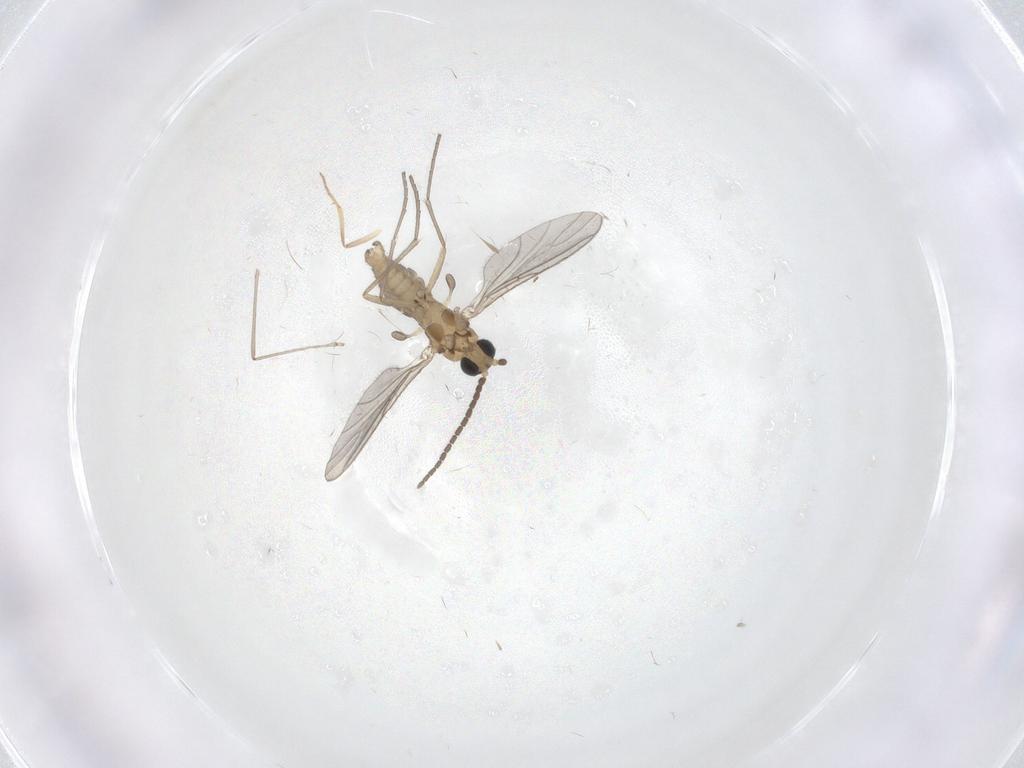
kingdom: Animalia
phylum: Arthropoda
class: Insecta
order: Diptera
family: Sciaridae
